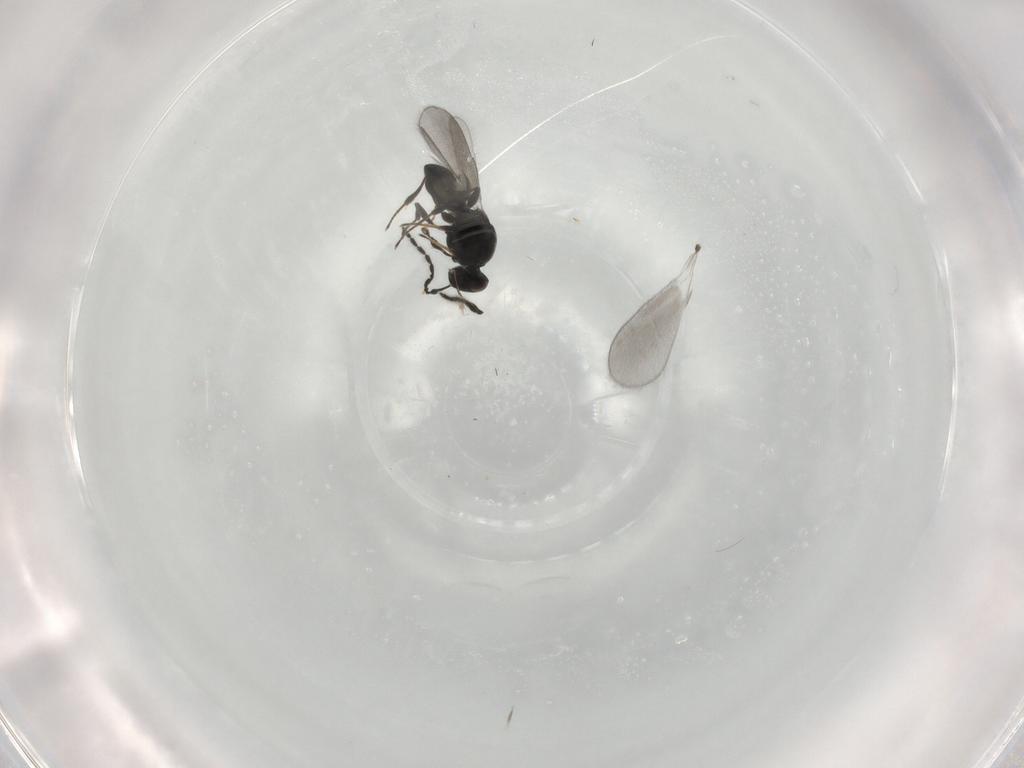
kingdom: Animalia
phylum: Arthropoda
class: Insecta
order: Hymenoptera
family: Platygastridae
